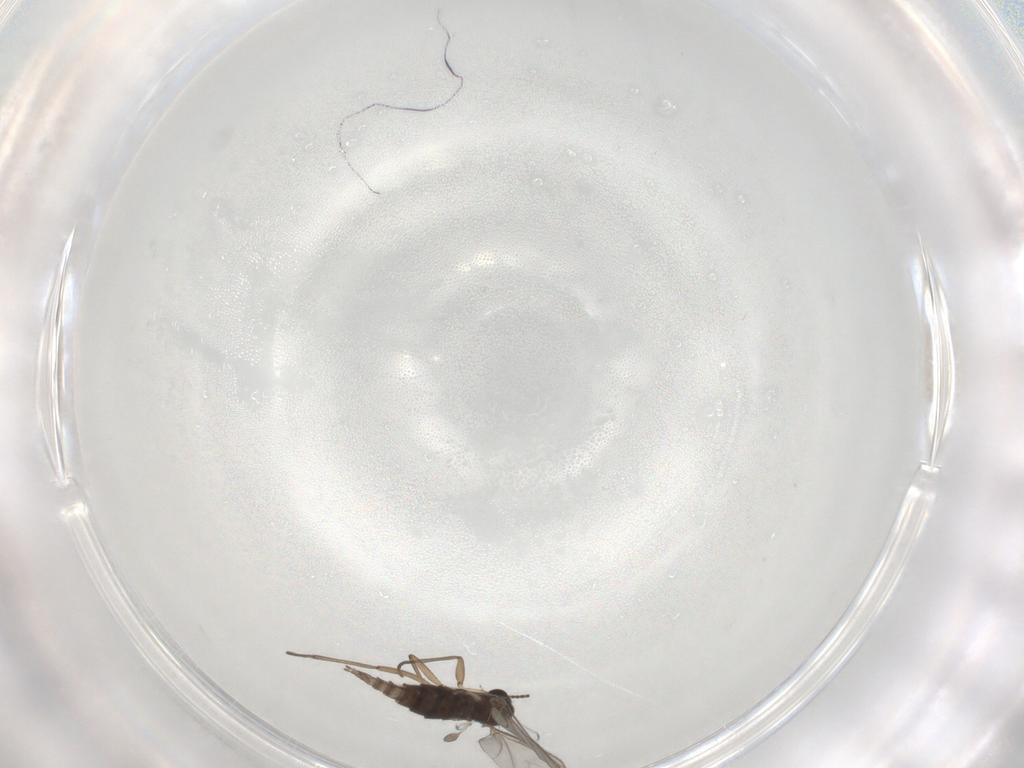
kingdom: Animalia
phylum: Arthropoda
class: Insecta
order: Diptera
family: Sciaridae
